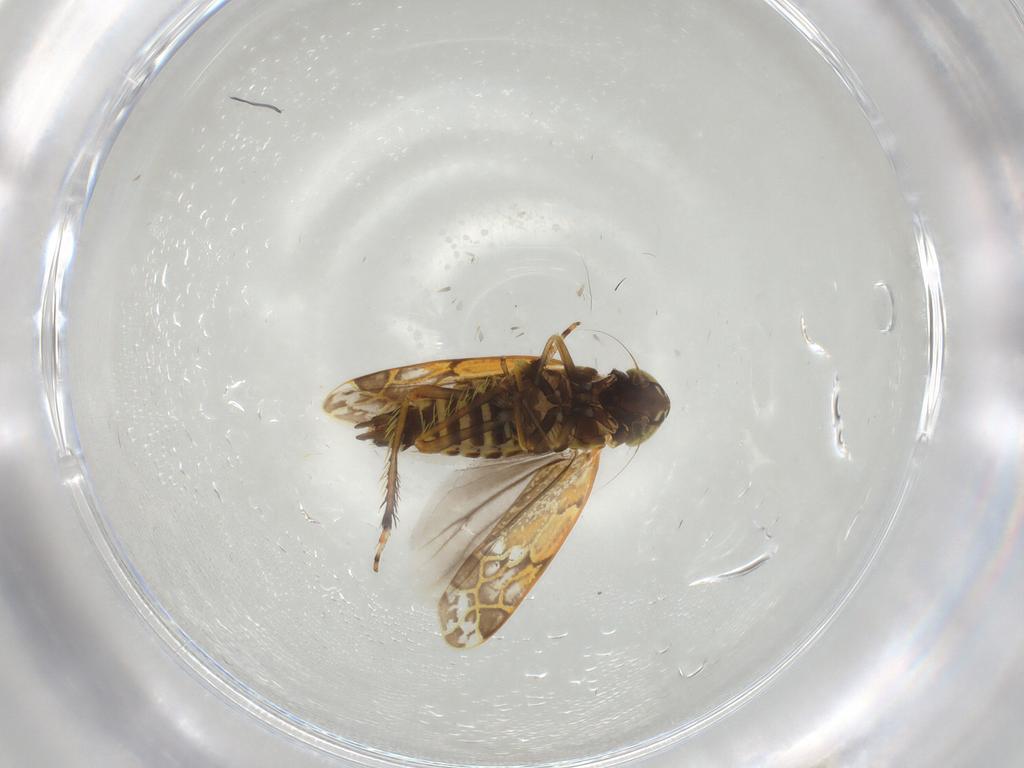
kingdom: Animalia
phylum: Arthropoda
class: Insecta
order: Hemiptera
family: Cicadellidae
